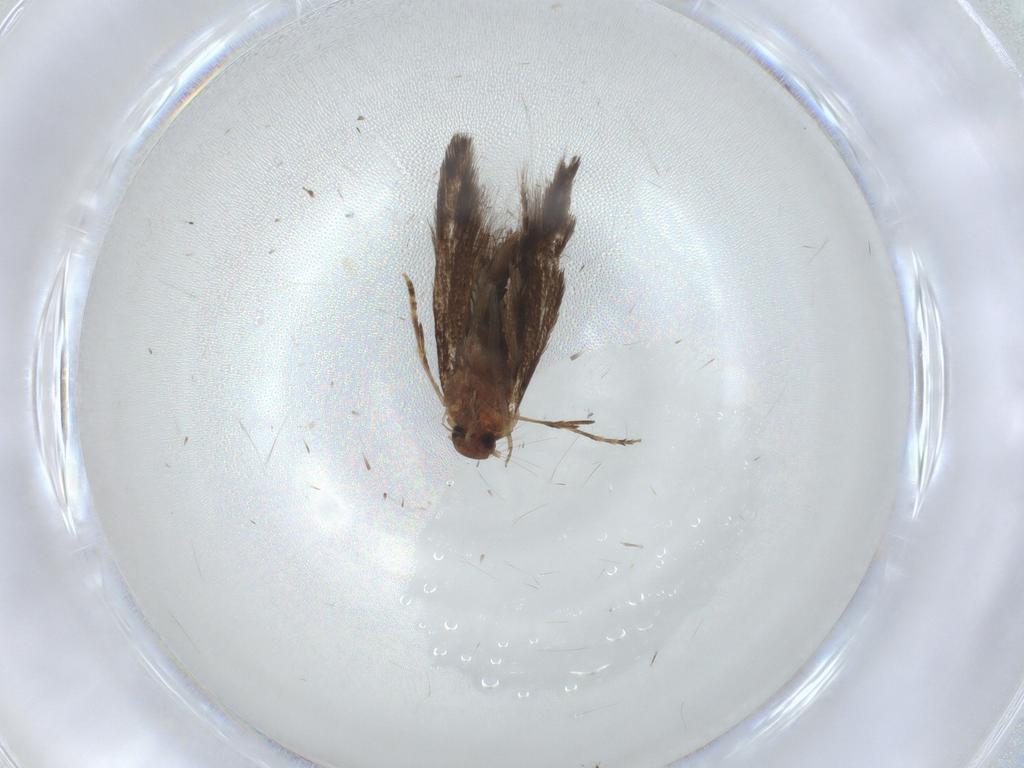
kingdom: Animalia
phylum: Arthropoda
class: Insecta
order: Lepidoptera
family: Elachistidae
